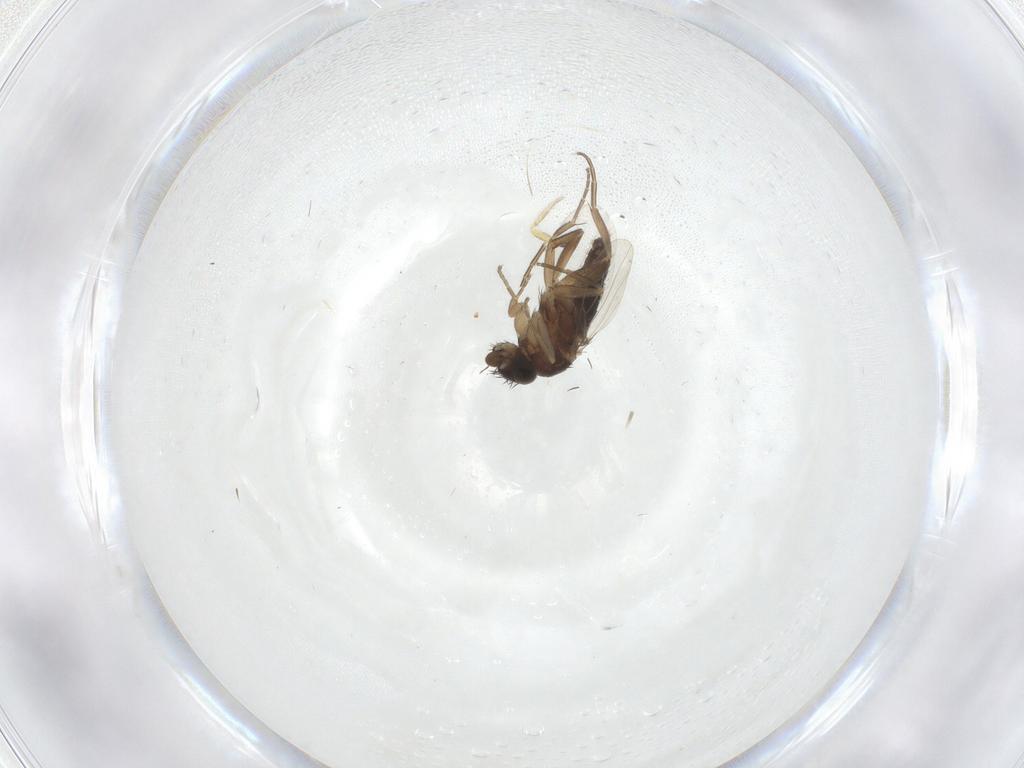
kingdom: Animalia
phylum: Arthropoda
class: Insecta
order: Diptera
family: Phoridae
